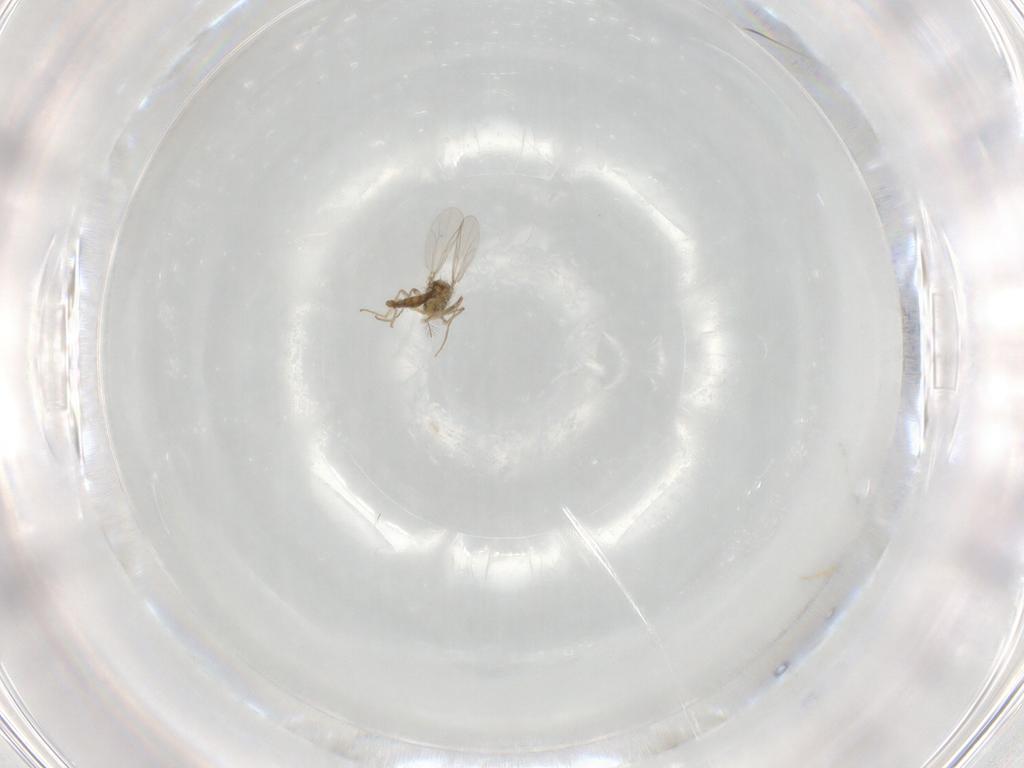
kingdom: Animalia
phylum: Arthropoda
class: Insecta
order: Diptera
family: Chironomidae
